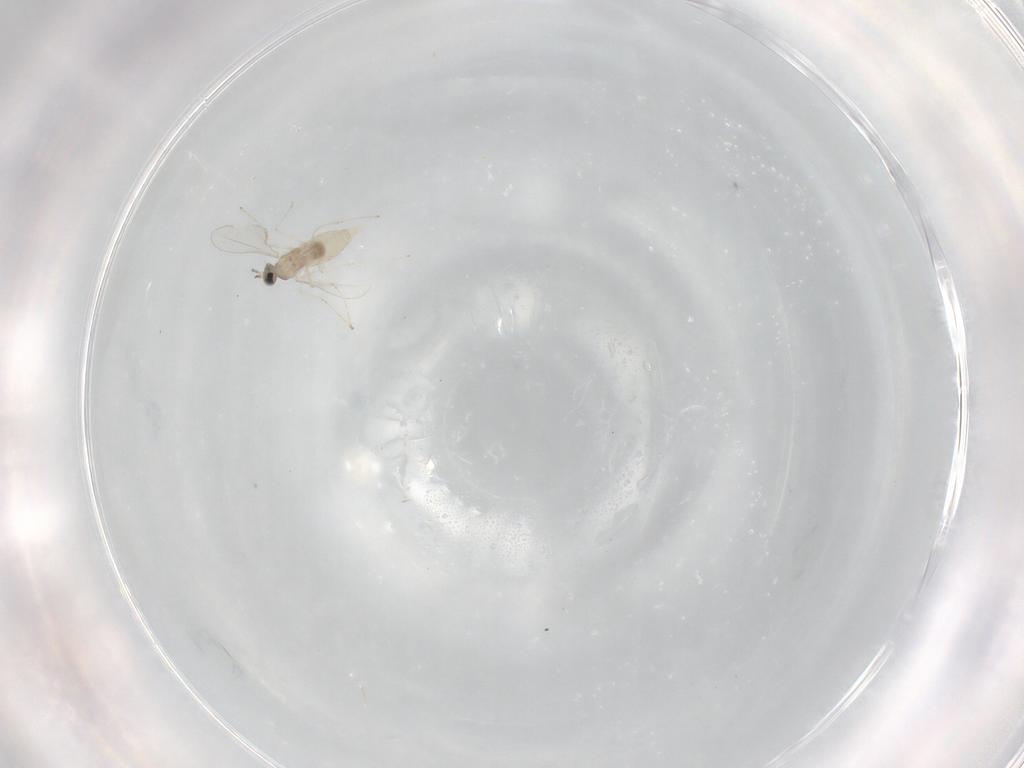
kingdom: Animalia
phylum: Arthropoda
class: Insecta
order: Diptera
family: Cecidomyiidae
